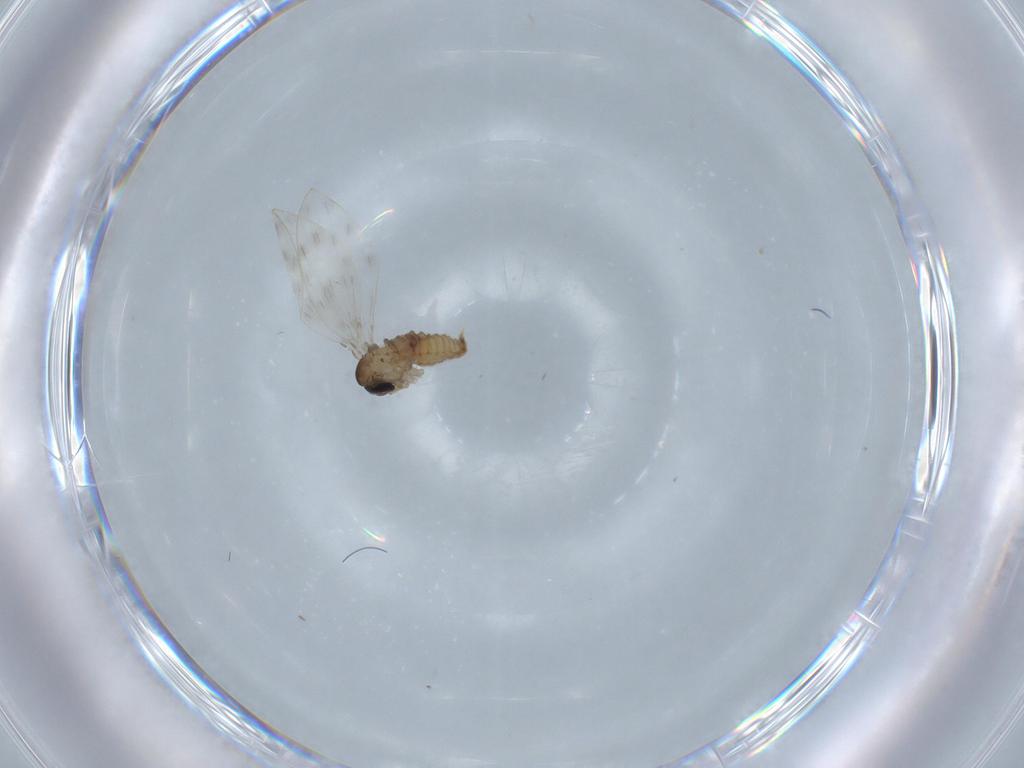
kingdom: Animalia
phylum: Arthropoda
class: Insecta
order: Diptera
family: Psychodidae
